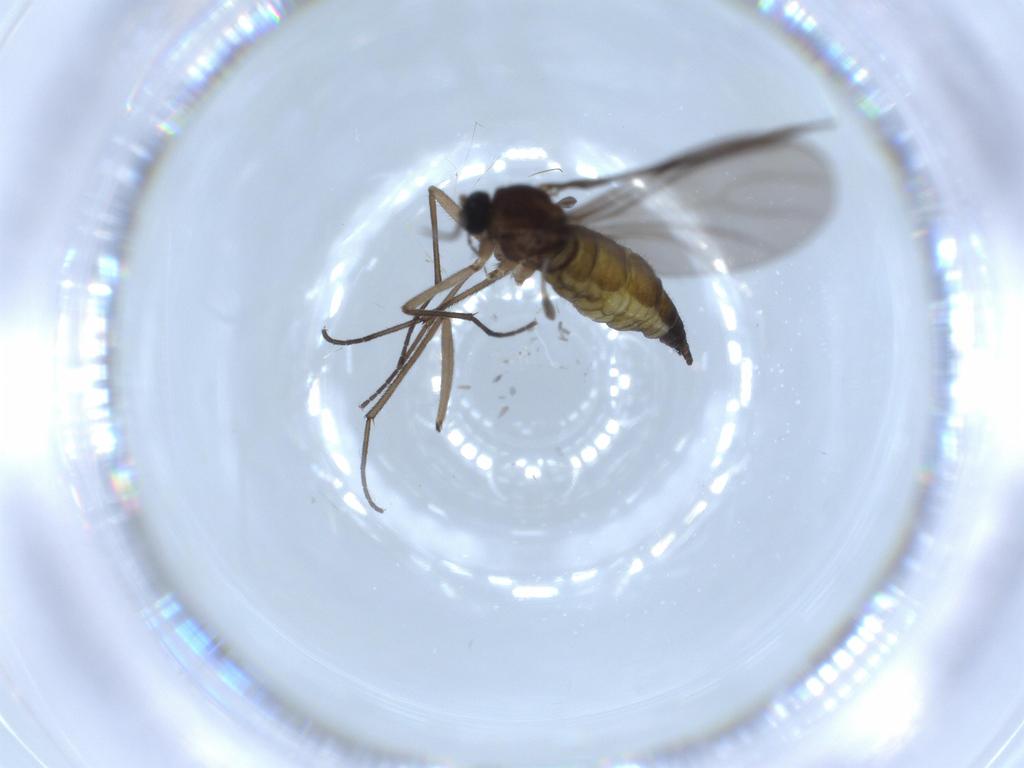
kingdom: Animalia
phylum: Arthropoda
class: Insecta
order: Diptera
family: Sciaridae
